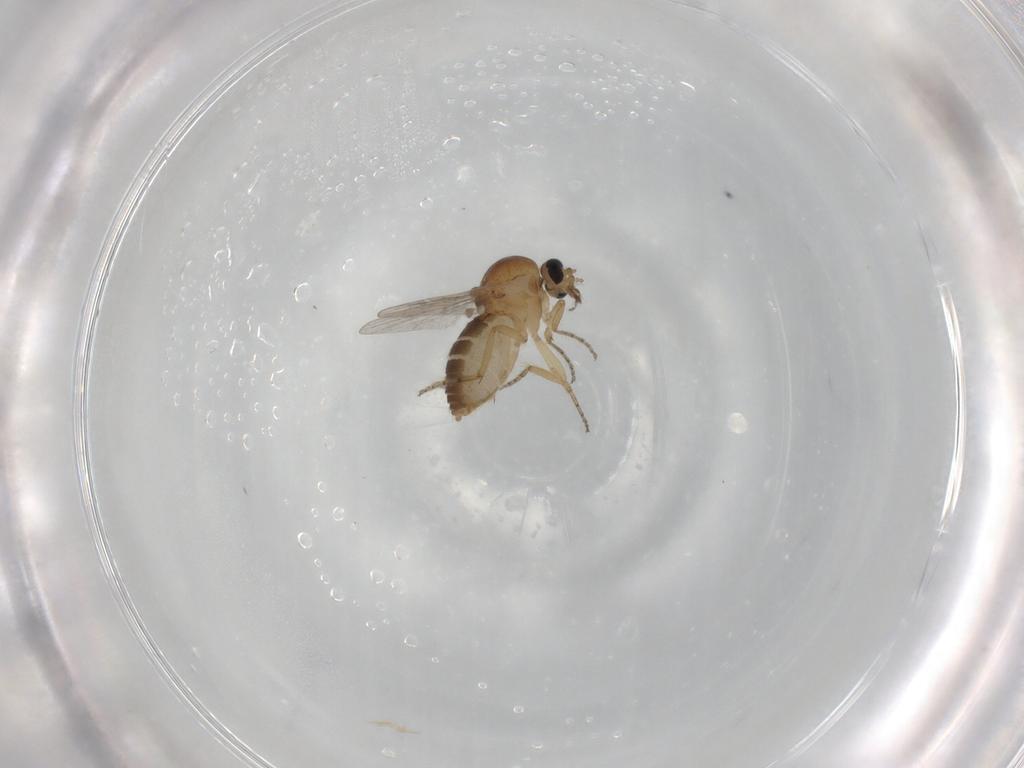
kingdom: Animalia
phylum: Arthropoda
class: Insecta
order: Diptera
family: Ceratopogonidae
